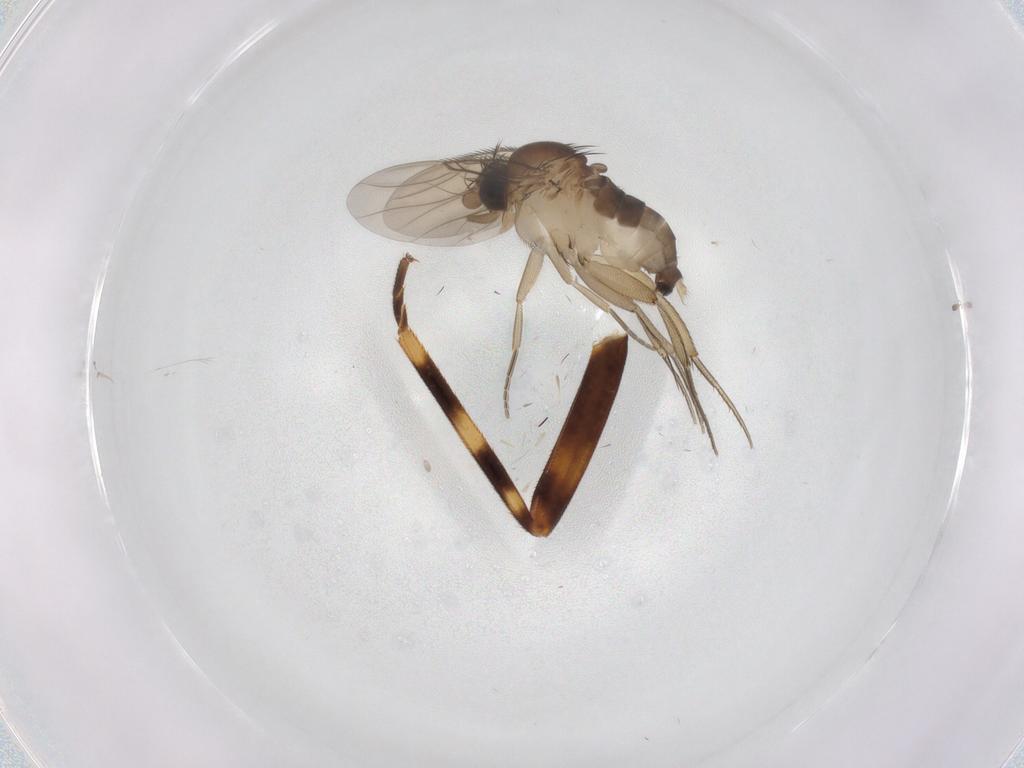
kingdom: Animalia
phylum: Arthropoda
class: Insecta
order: Diptera
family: Phoridae
